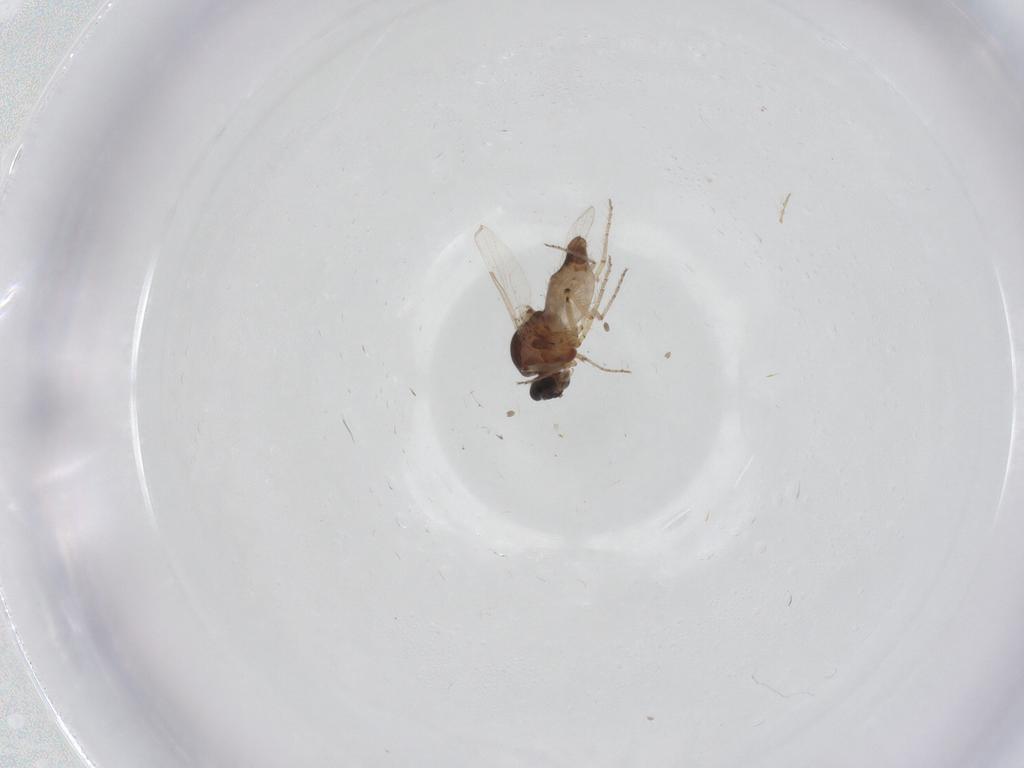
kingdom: Animalia
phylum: Arthropoda
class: Insecta
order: Diptera
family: Ceratopogonidae
